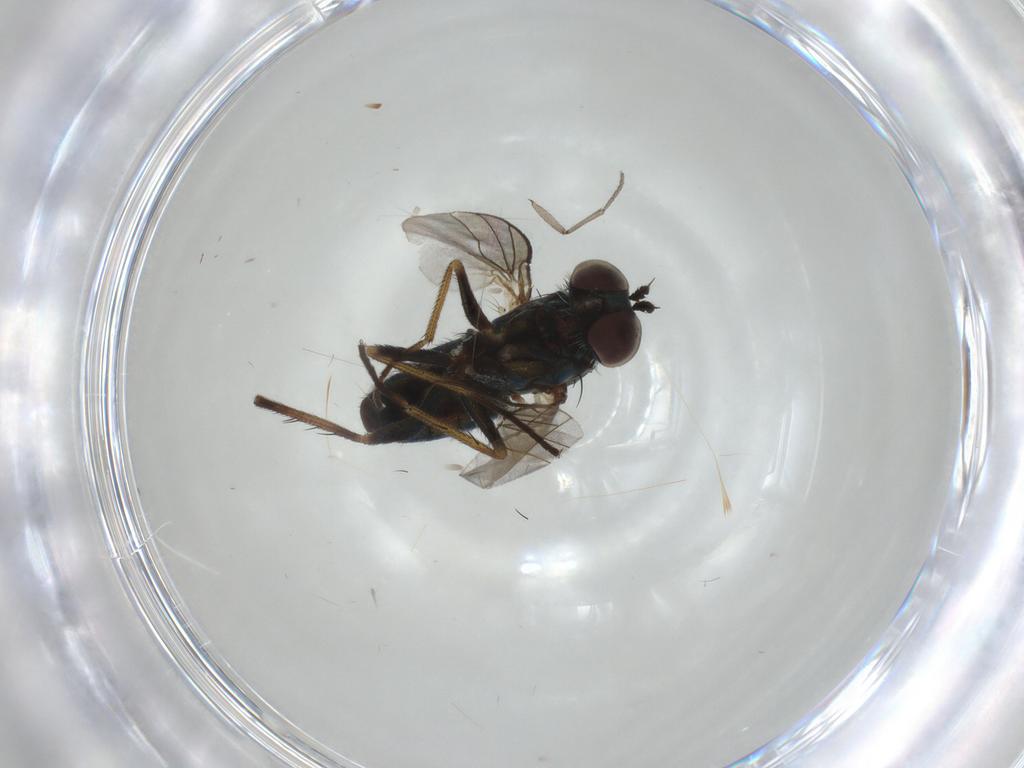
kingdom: Animalia
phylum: Arthropoda
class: Insecta
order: Diptera
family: Dolichopodidae
